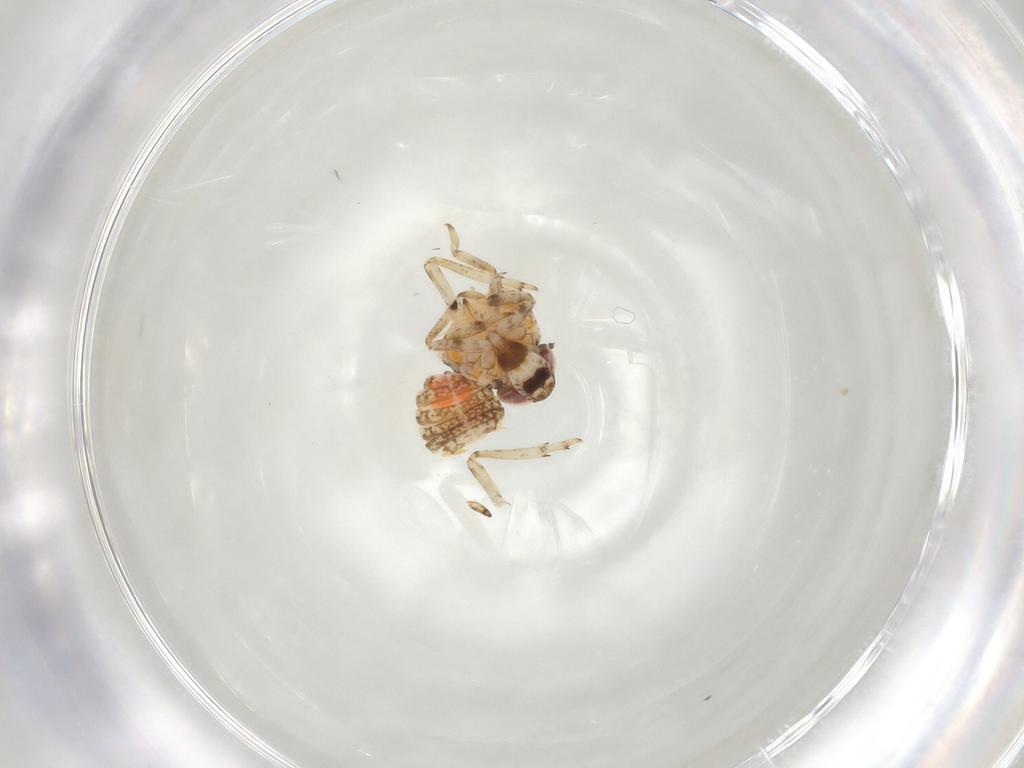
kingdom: Animalia
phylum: Arthropoda
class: Insecta
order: Hemiptera
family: Issidae
